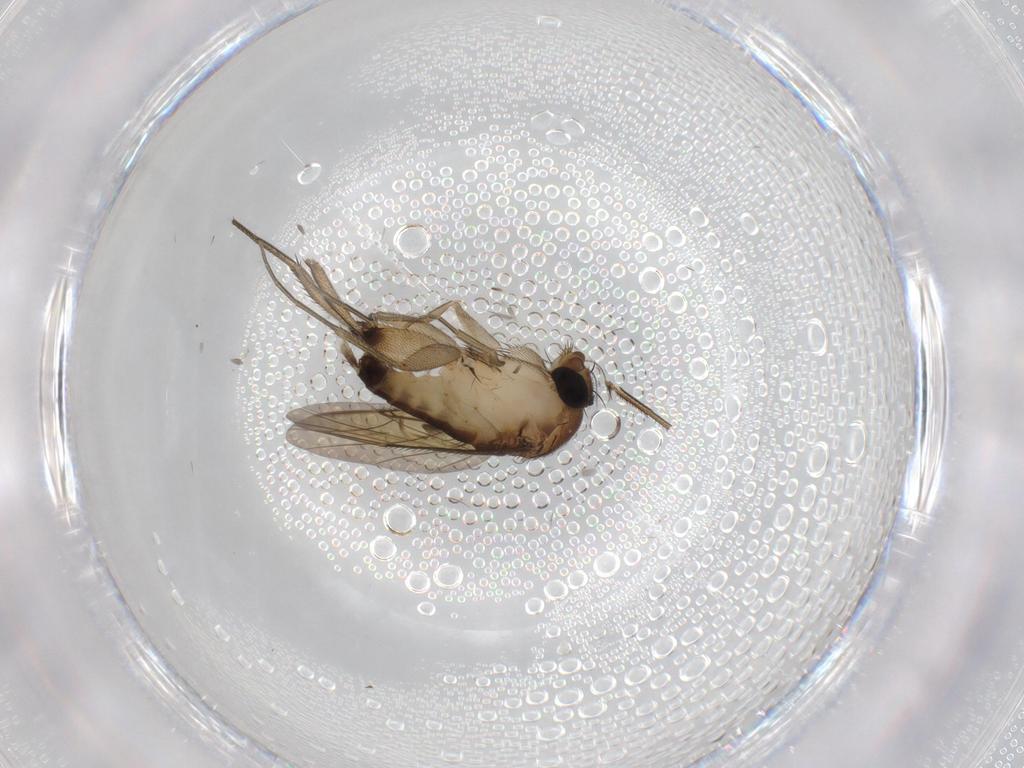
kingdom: Animalia
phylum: Arthropoda
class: Insecta
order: Diptera
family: Phoridae
